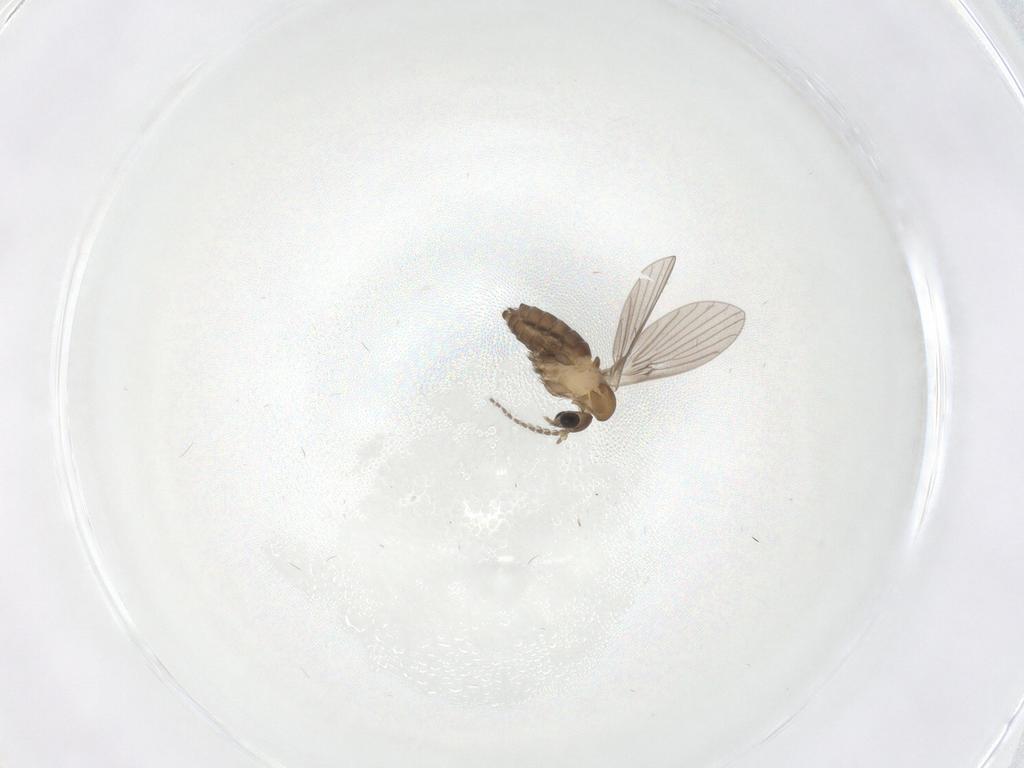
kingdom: Animalia
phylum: Arthropoda
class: Insecta
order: Diptera
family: Psychodidae
